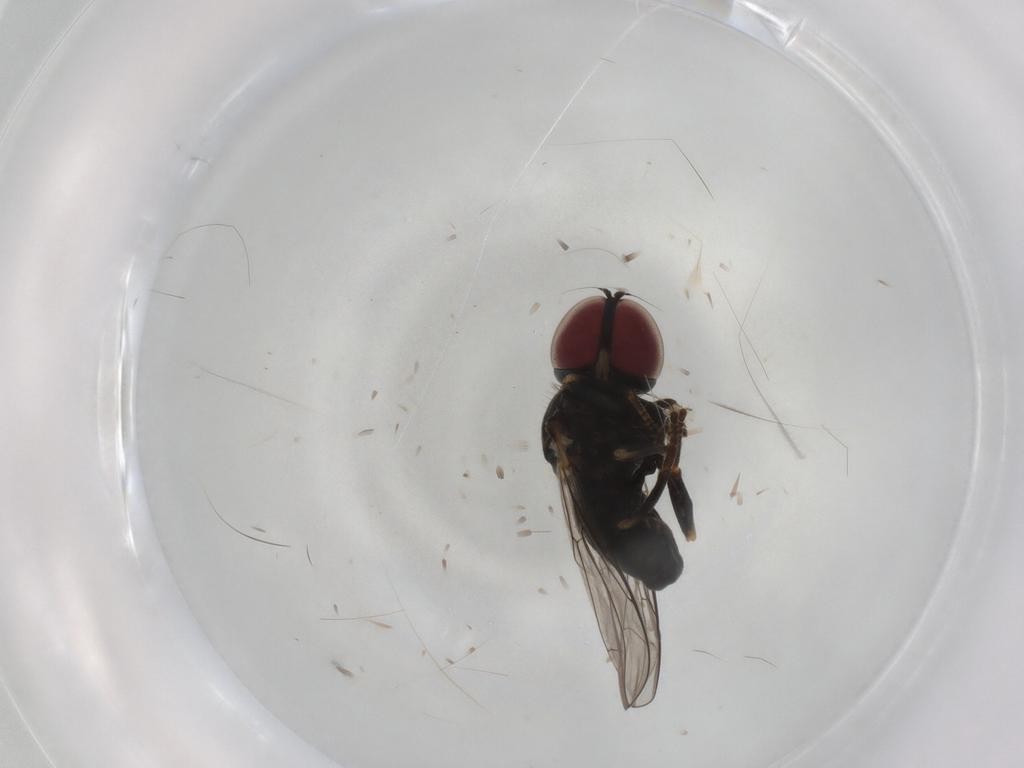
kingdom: Animalia
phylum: Arthropoda
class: Insecta
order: Diptera
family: Pipunculidae
